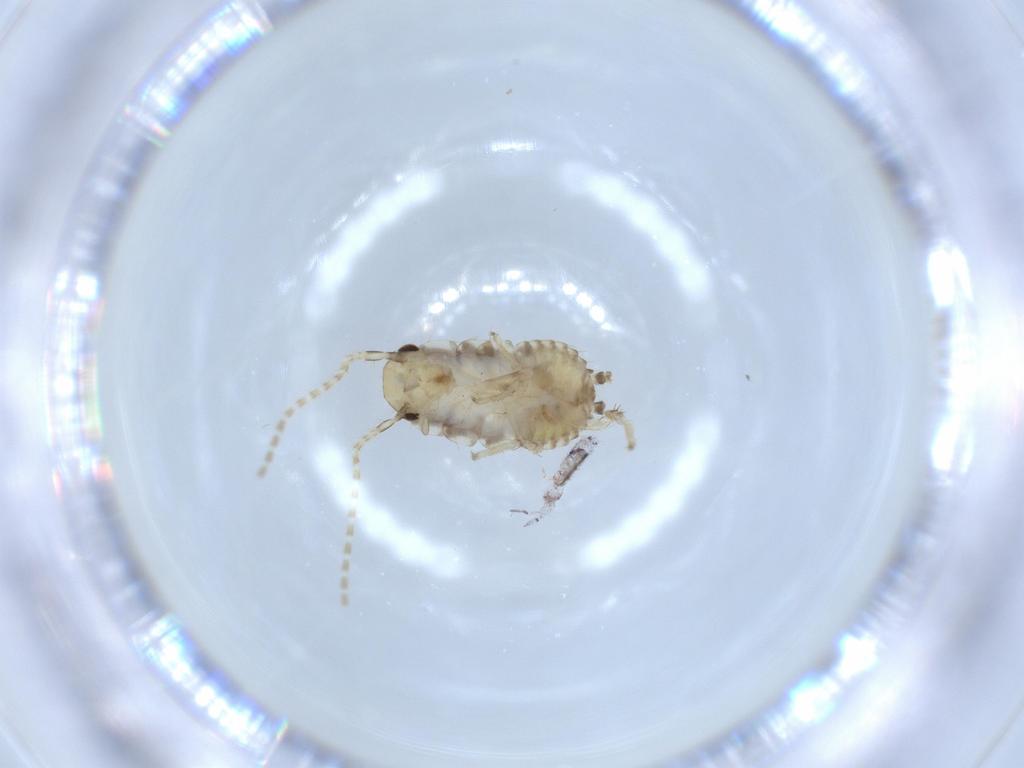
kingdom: Animalia
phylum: Arthropoda
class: Insecta
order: Blattodea
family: Ectobiidae
